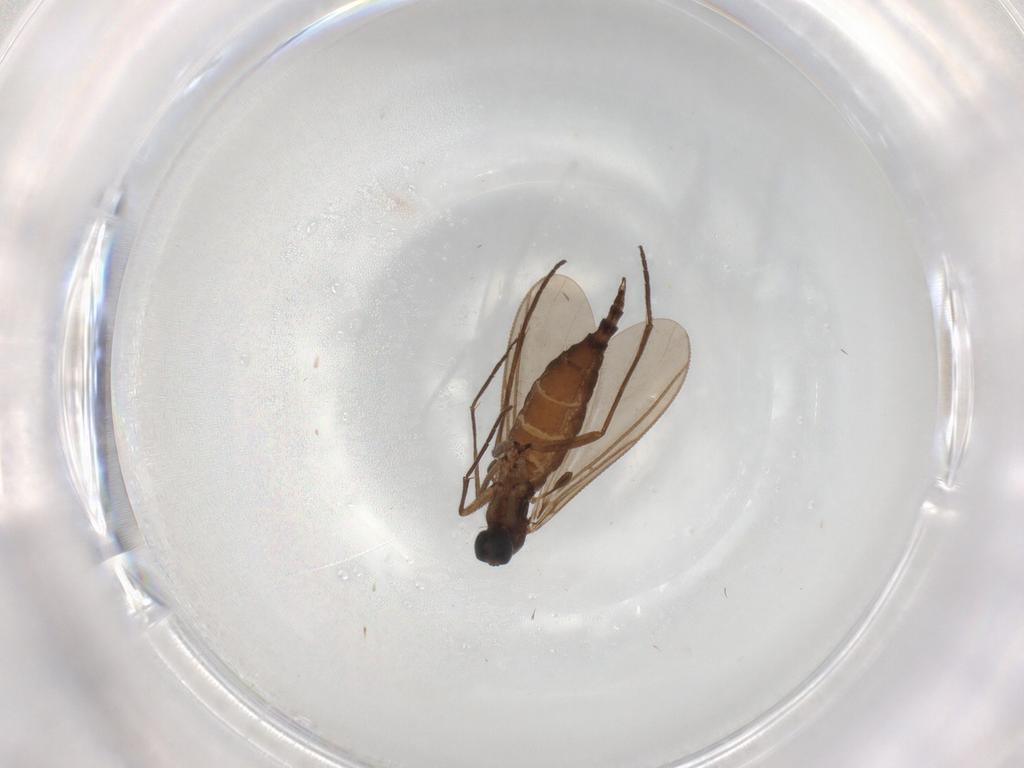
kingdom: Animalia
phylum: Arthropoda
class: Insecta
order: Diptera
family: Ceratopogonidae
